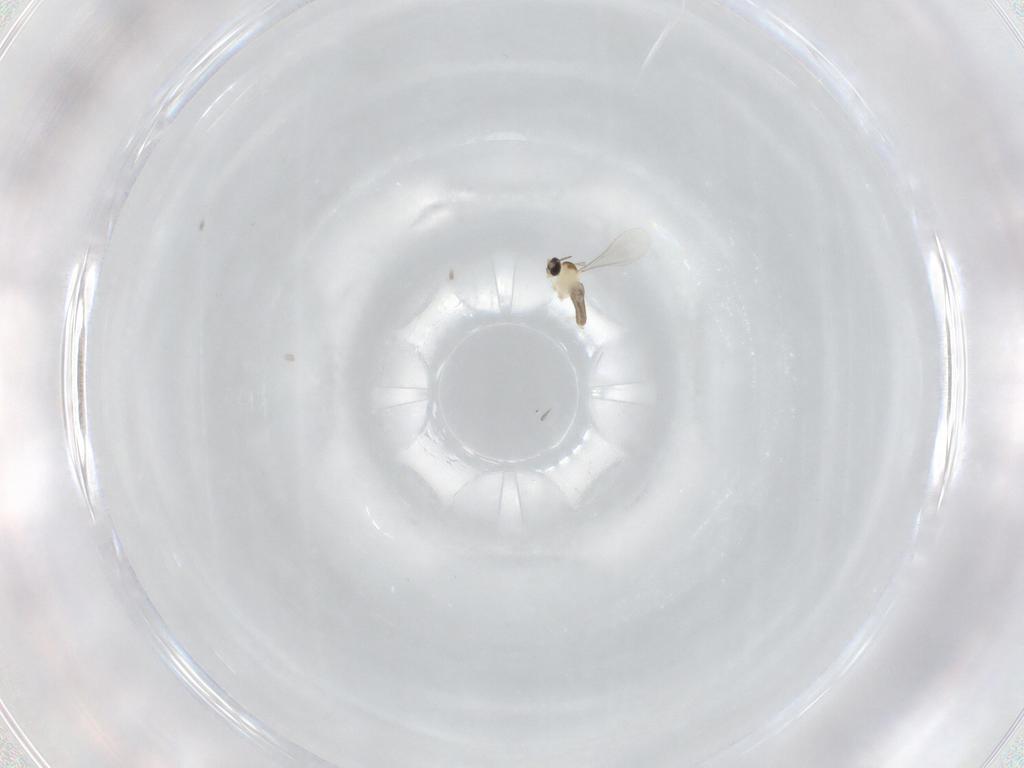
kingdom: Animalia
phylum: Arthropoda
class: Insecta
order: Diptera
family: Cecidomyiidae
